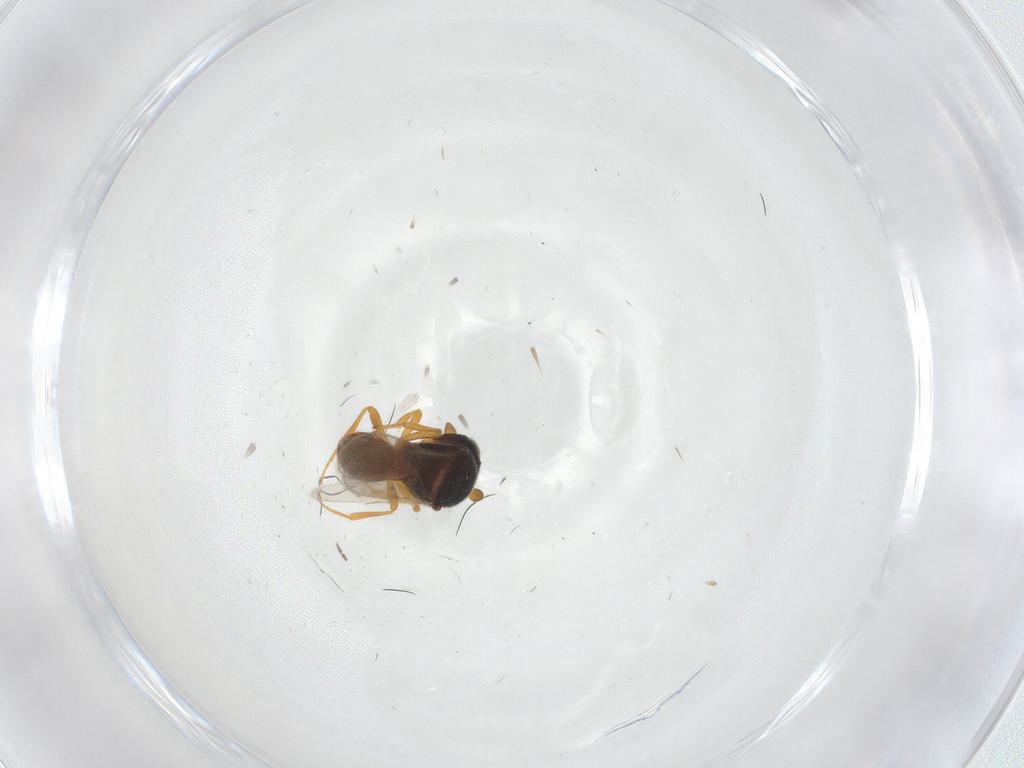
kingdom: Animalia
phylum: Arthropoda
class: Insecta
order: Hymenoptera
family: Scelionidae
